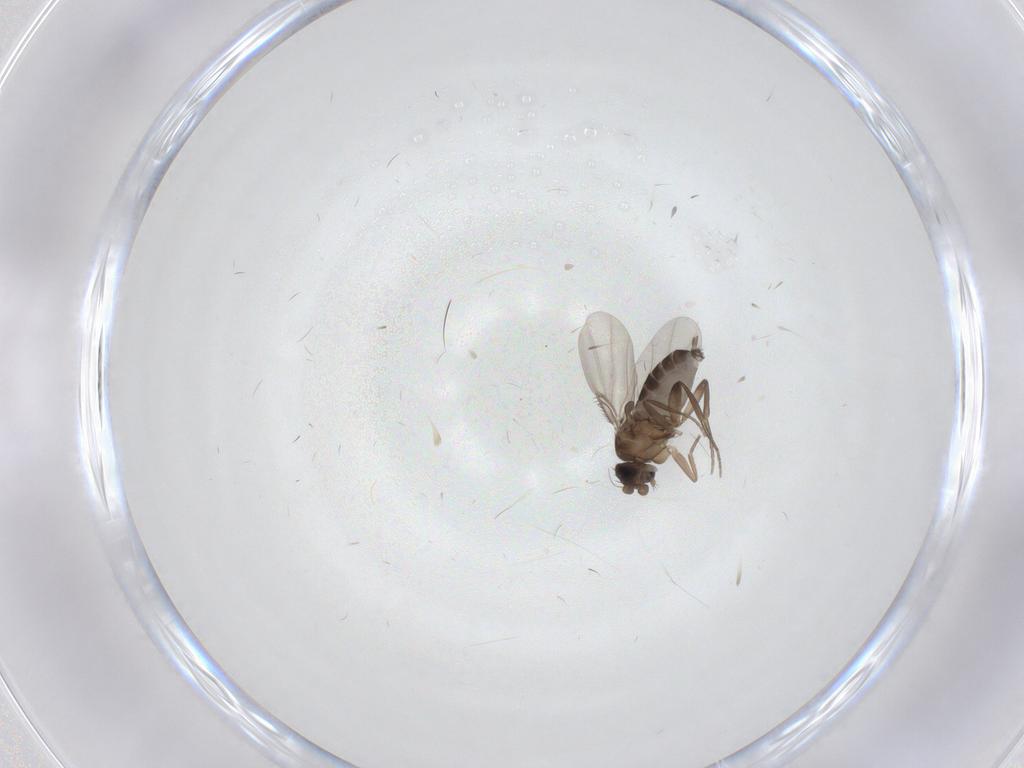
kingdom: Animalia
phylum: Arthropoda
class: Insecta
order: Diptera
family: Phoridae
